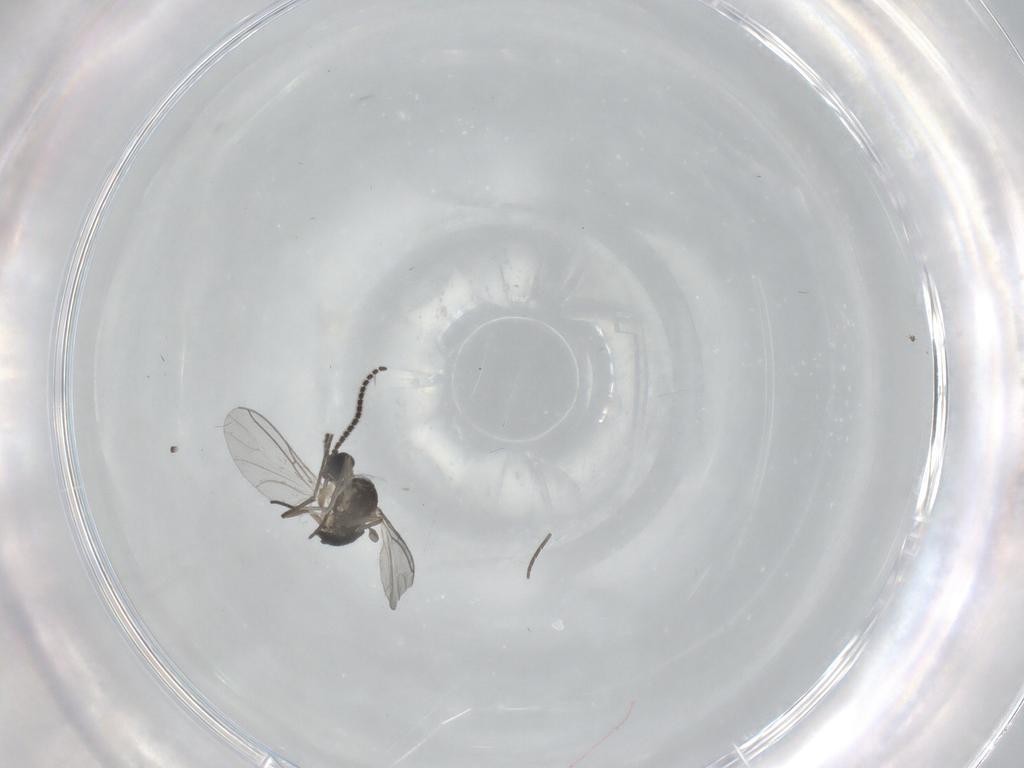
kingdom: Animalia
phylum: Arthropoda
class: Insecta
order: Diptera
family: Sciaridae
